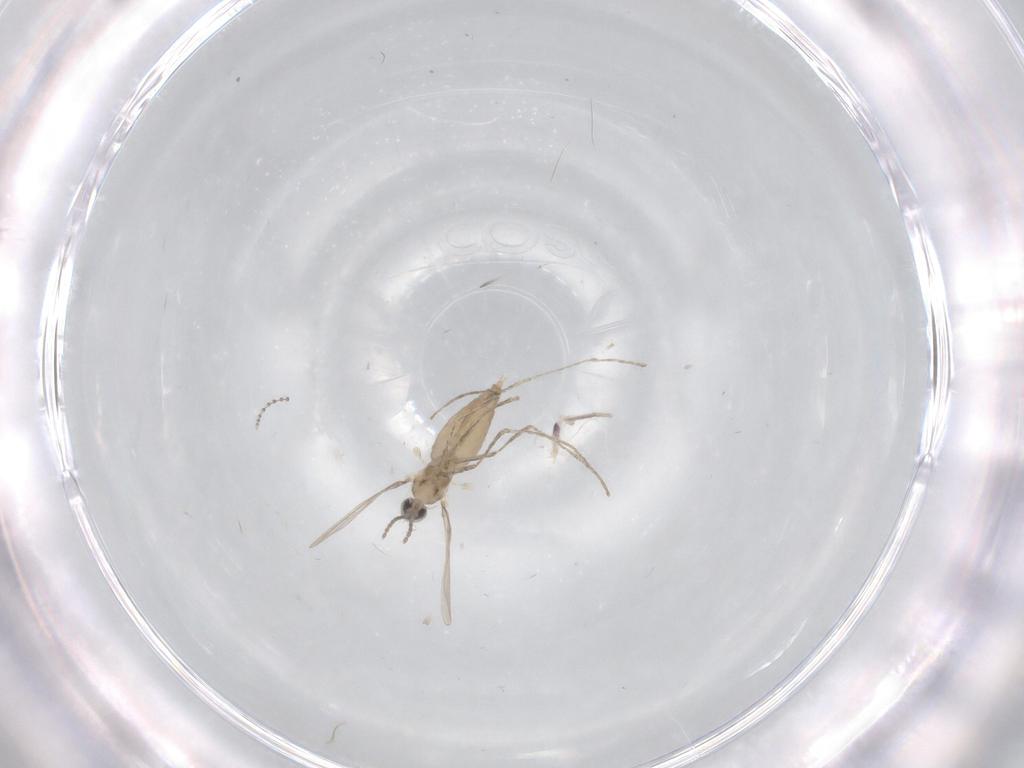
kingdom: Animalia
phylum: Arthropoda
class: Insecta
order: Diptera
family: Cecidomyiidae
